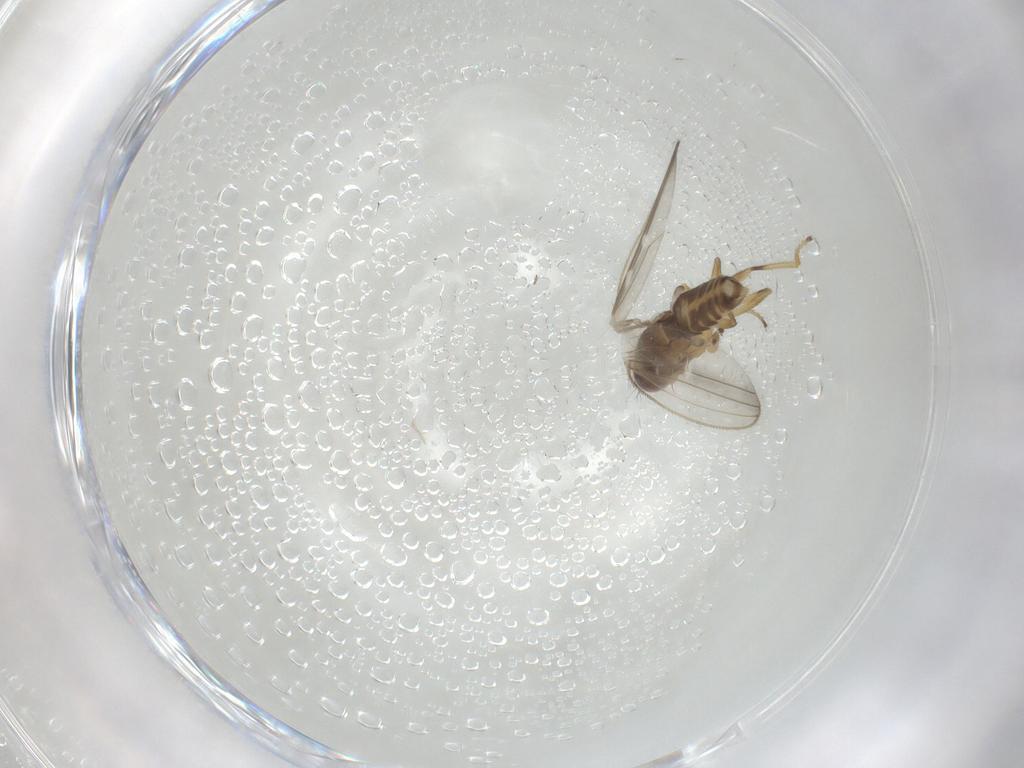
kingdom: Animalia
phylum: Arthropoda
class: Insecta
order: Diptera
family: Periscelididae
